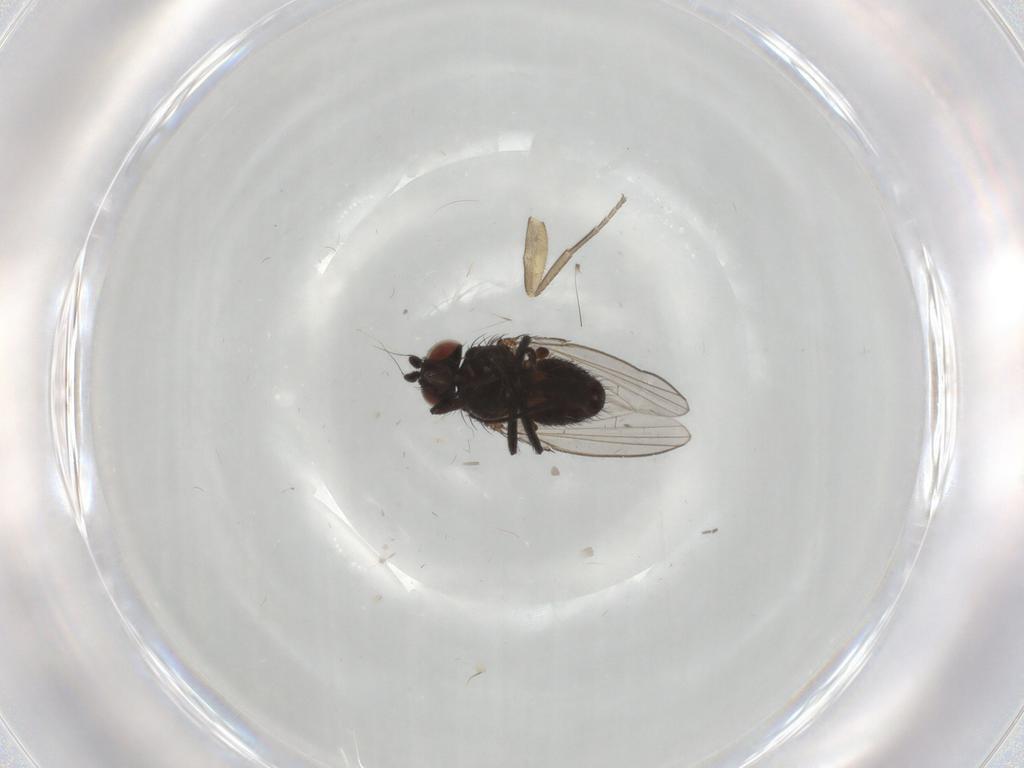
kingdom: Animalia
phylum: Arthropoda
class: Insecta
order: Diptera
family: Milichiidae
